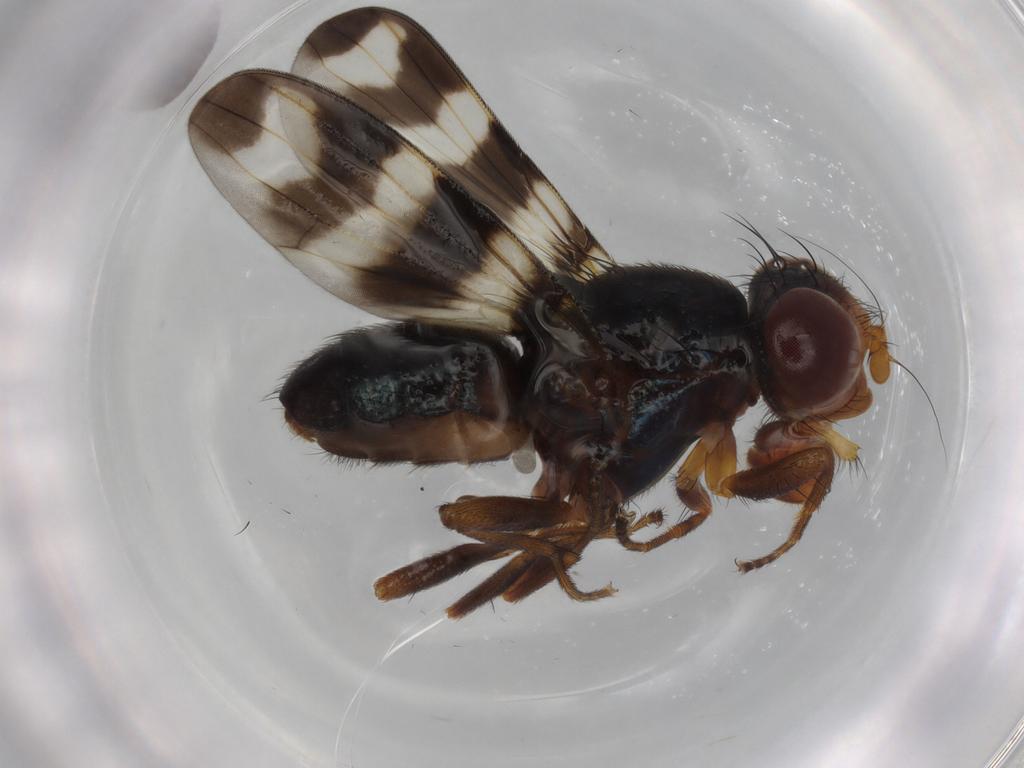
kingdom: Animalia
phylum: Arthropoda
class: Insecta
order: Diptera
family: Ulidiidae
